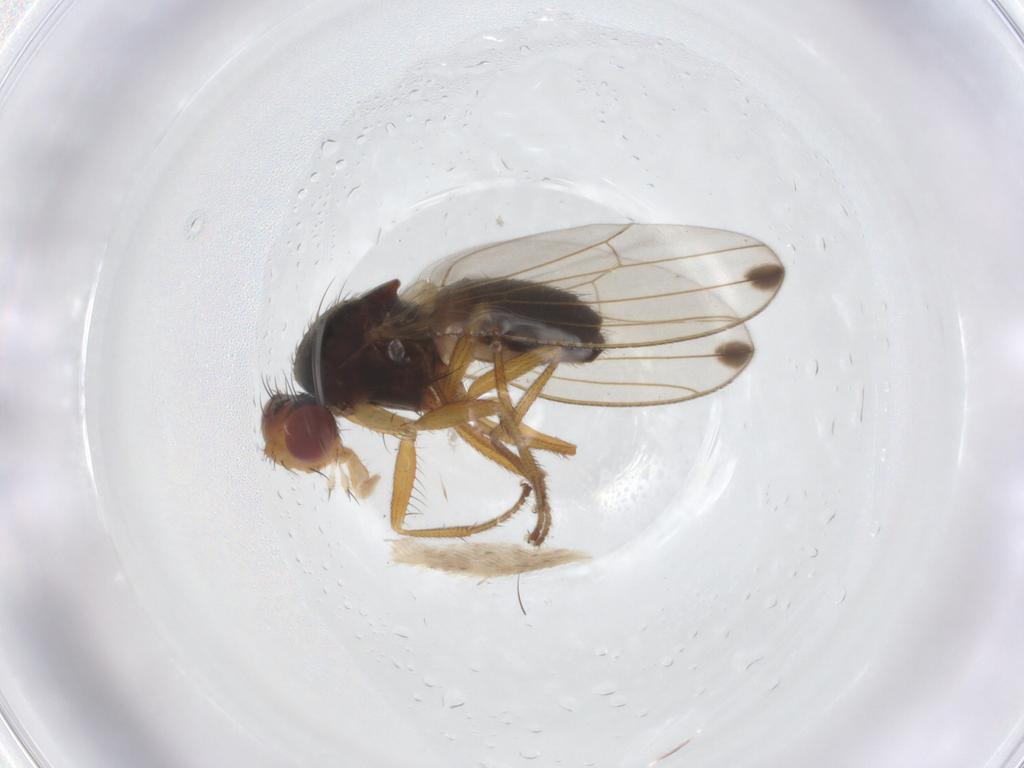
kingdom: Animalia
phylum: Arthropoda
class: Insecta
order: Diptera
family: Drosophilidae
